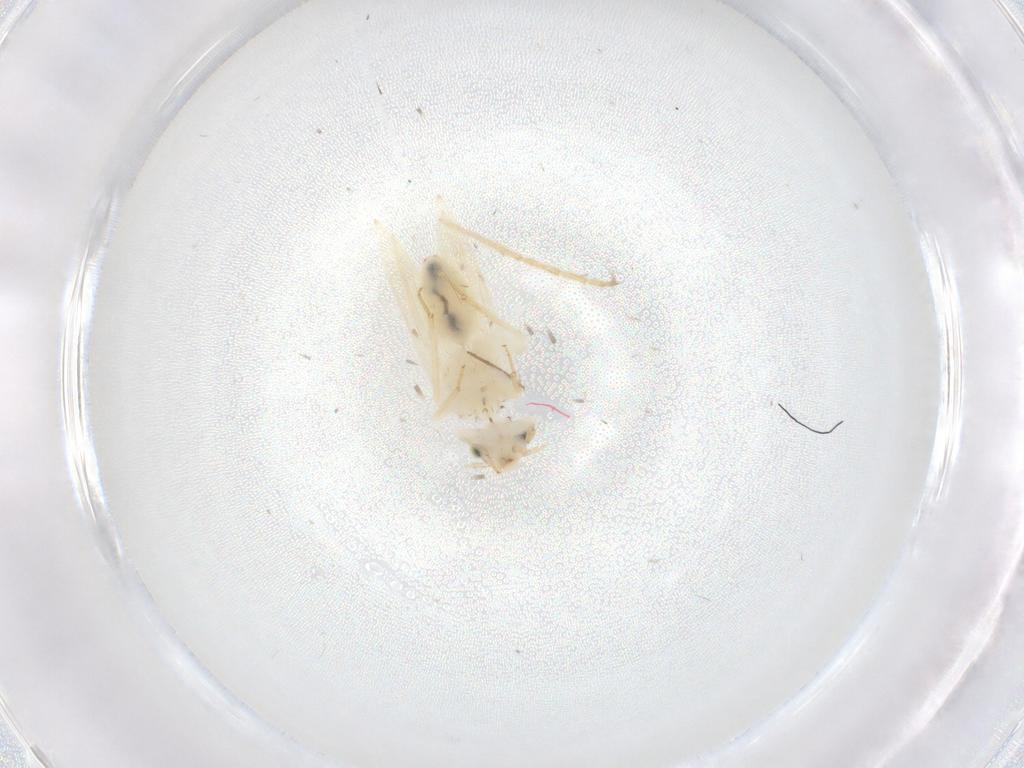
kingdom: Animalia
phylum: Arthropoda
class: Insecta
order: Psocodea
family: Lepidopsocidae
